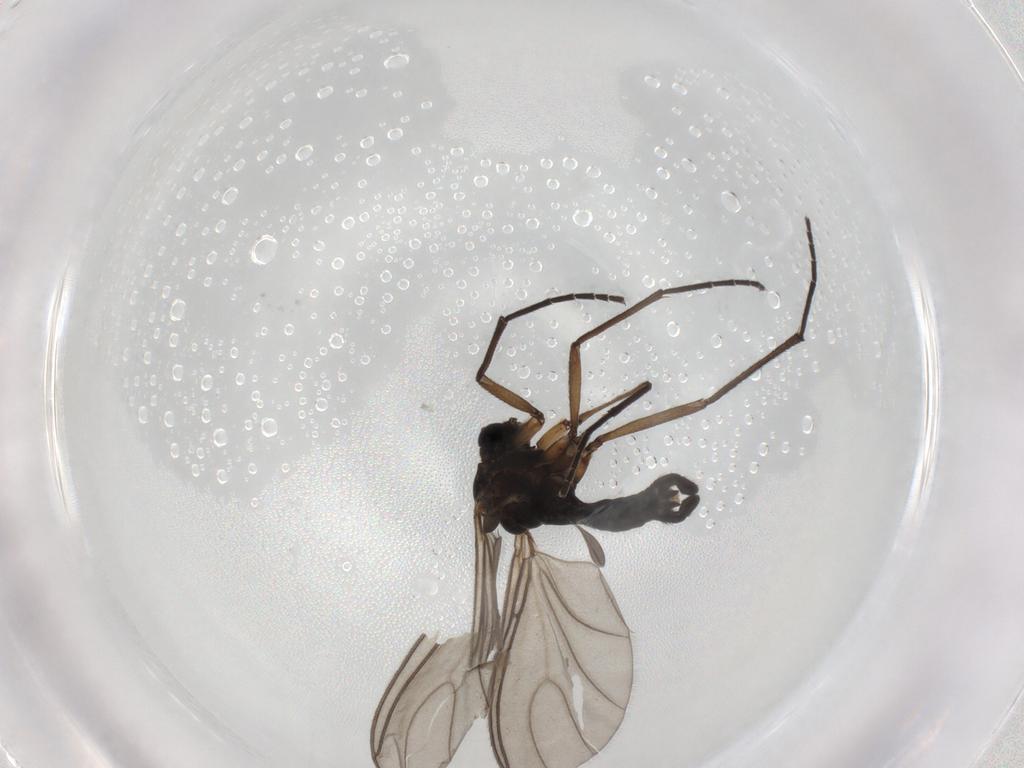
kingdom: Animalia
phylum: Arthropoda
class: Insecta
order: Diptera
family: Sciaridae
